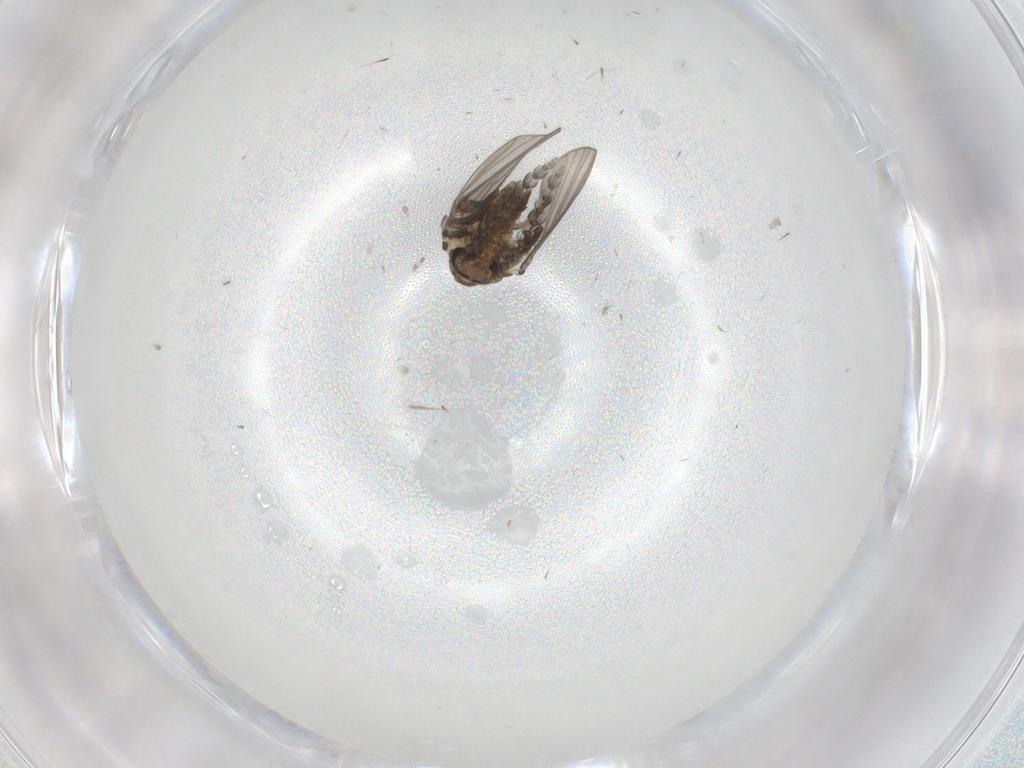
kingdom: Animalia
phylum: Arthropoda
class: Insecta
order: Diptera
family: Psychodidae
